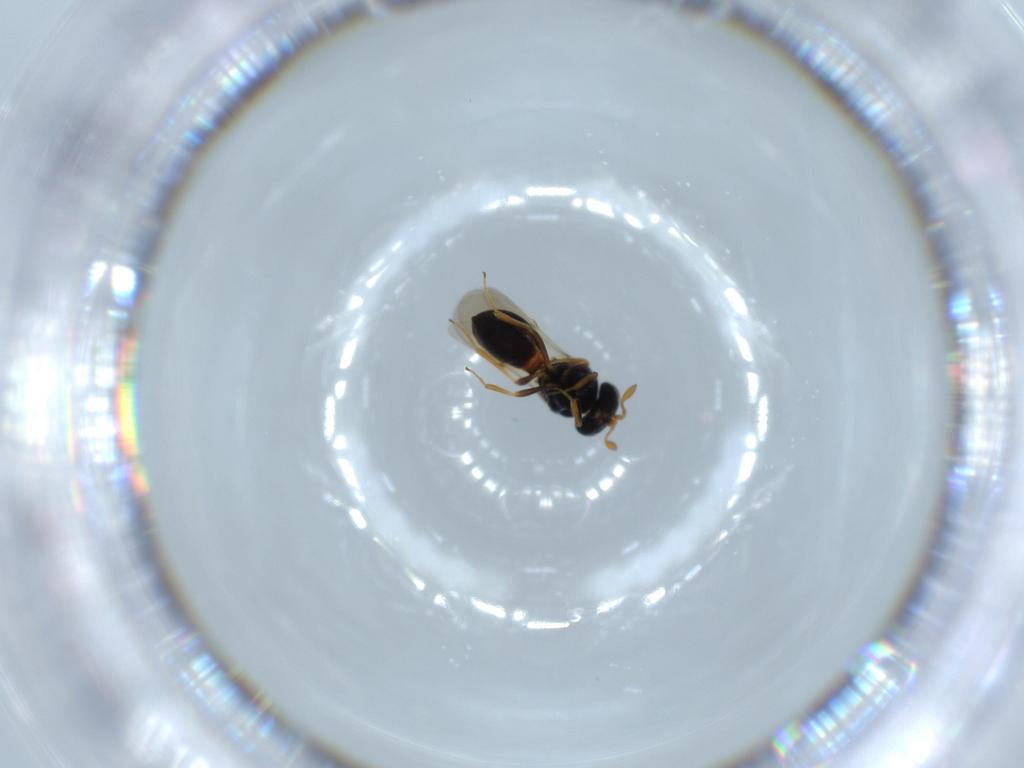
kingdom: Animalia
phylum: Arthropoda
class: Insecta
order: Hymenoptera
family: Scelionidae
